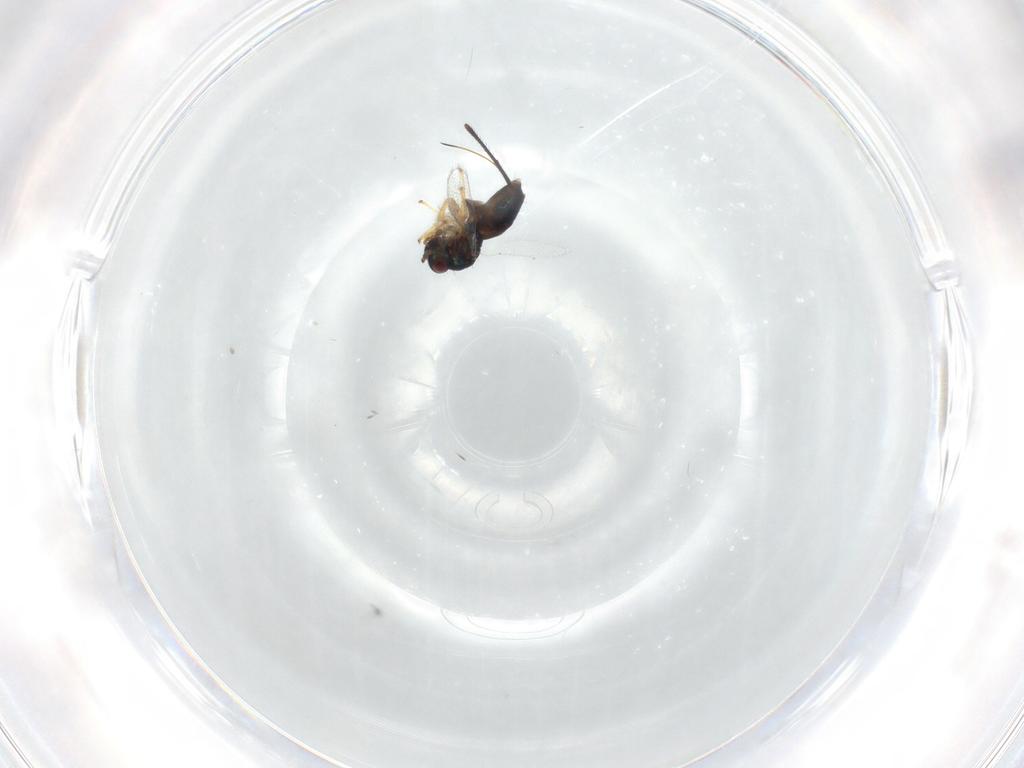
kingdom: Animalia
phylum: Arthropoda
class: Insecta
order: Hymenoptera
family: Torymidae
